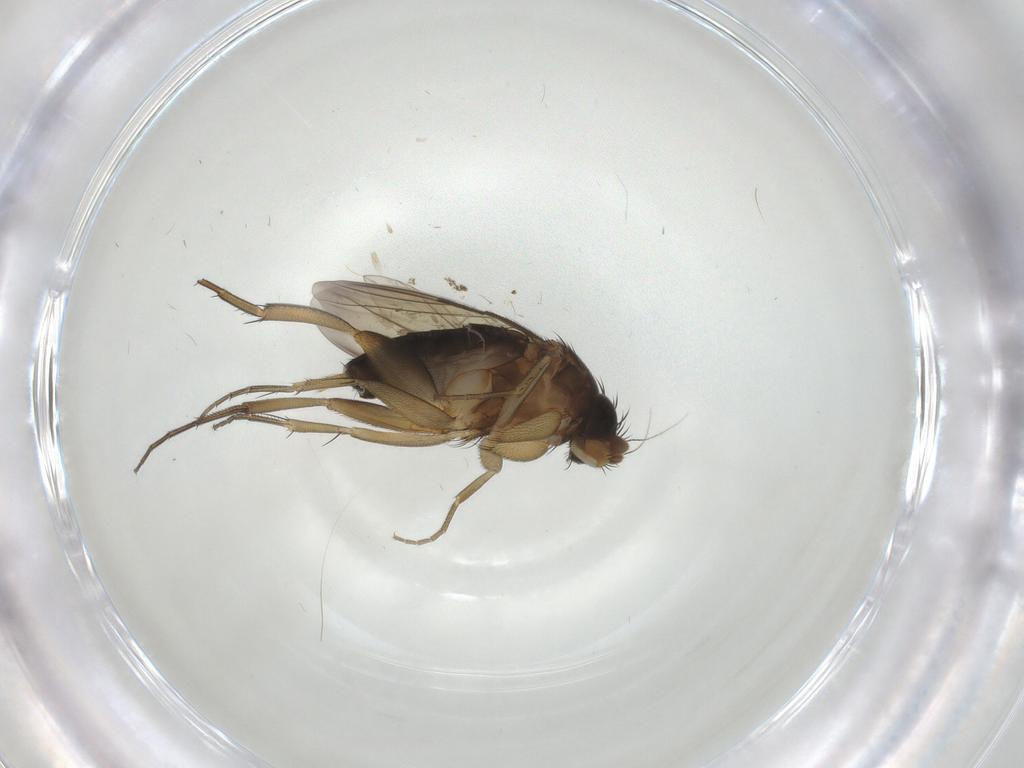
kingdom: Animalia
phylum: Arthropoda
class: Insecta
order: Diptera
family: Phoridae
